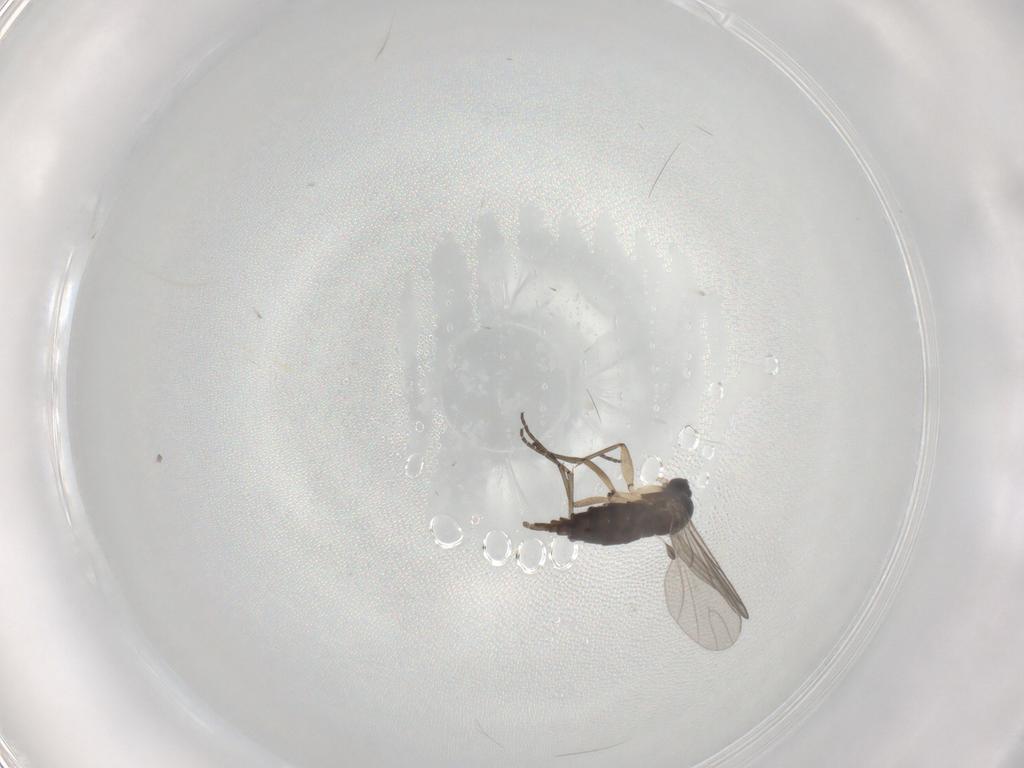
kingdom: Animalia
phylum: Arthropoda
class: Insecta
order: Diptera
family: Sciaridae
